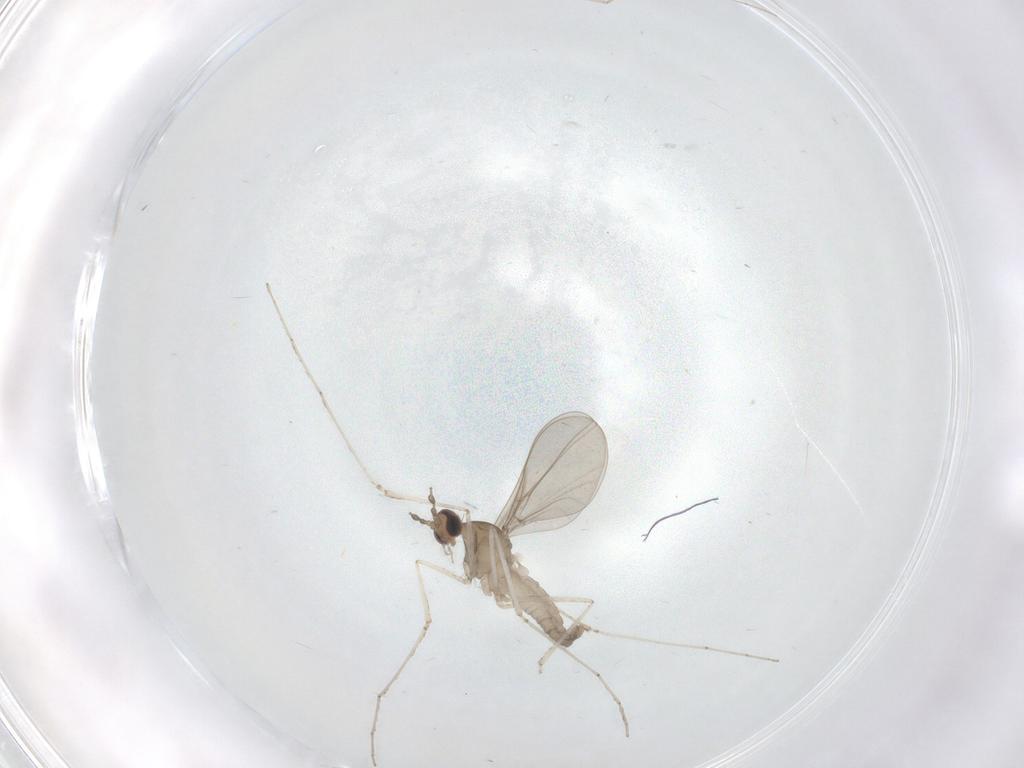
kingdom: Animalia
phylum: Arthropoda
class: Insecta
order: Diptera
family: Cecidomyiidae
